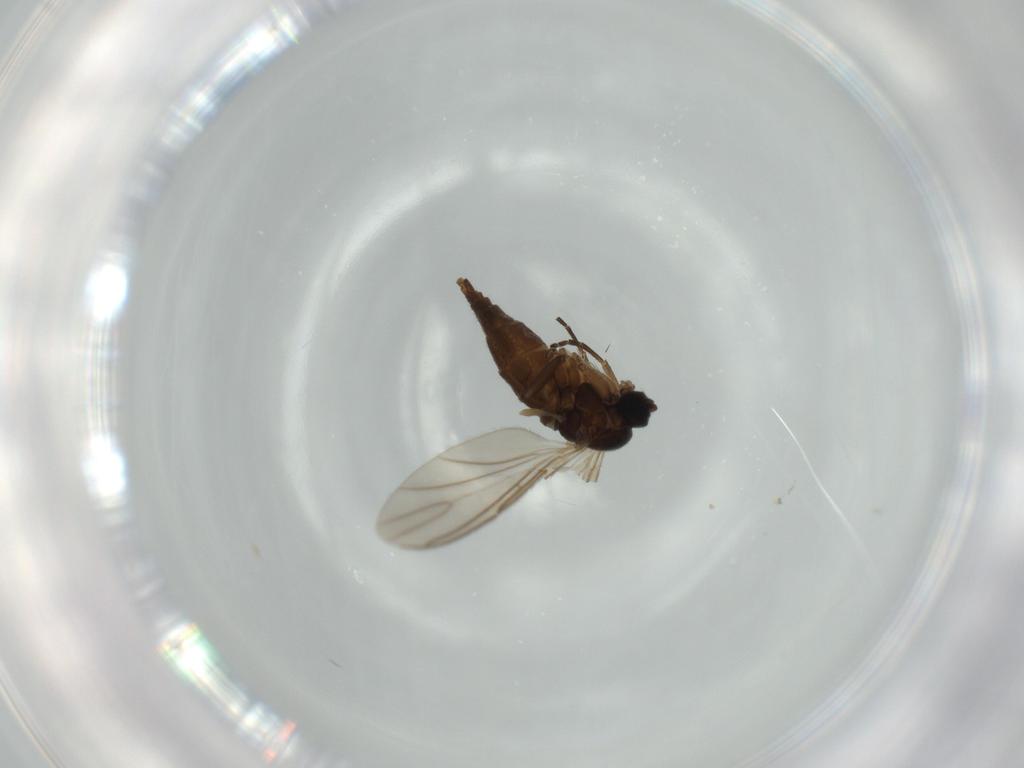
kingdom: Animalia
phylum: Arthropoda
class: Insecta
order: Diptera
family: Sciaridae
